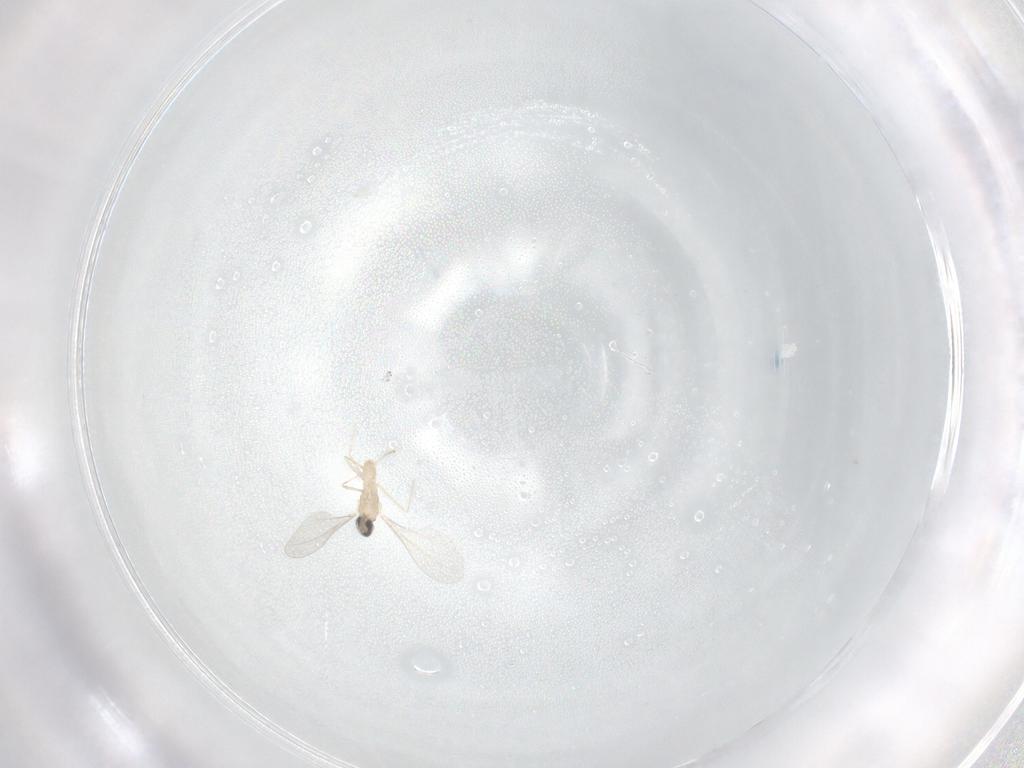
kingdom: Animalia
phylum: Arthropoda
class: Insecta
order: Diptera
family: Cecidomyiidae
